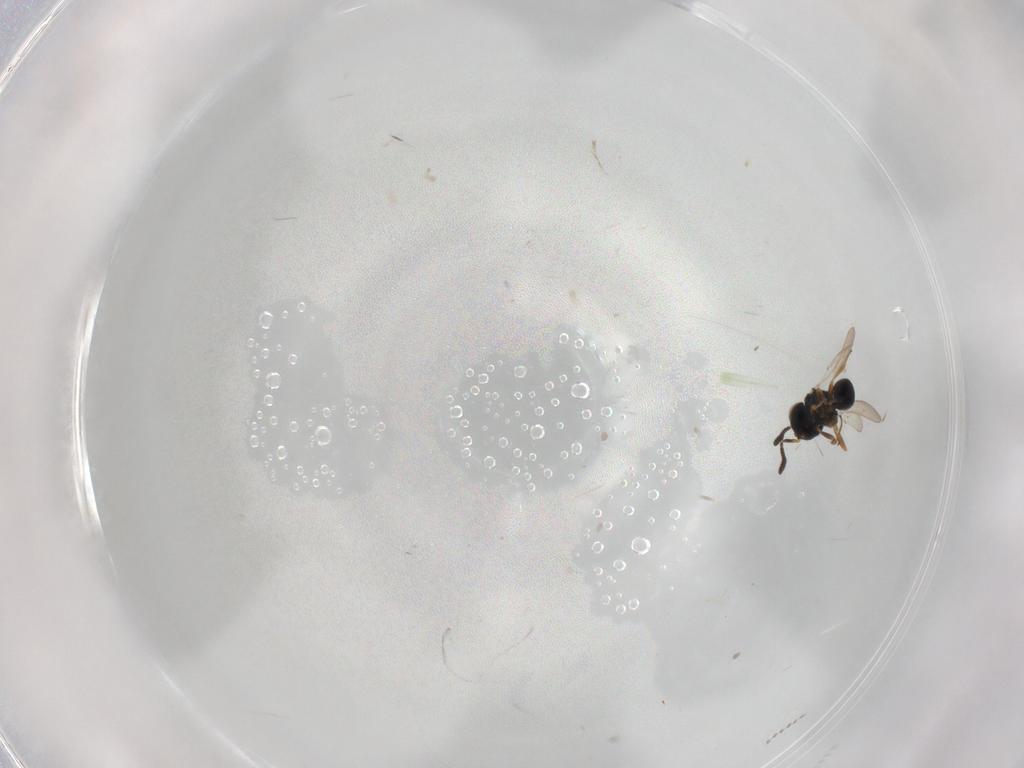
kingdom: Animalia
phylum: Arthropoda
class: Insecta
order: Hymenoptera
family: Scelionidae
